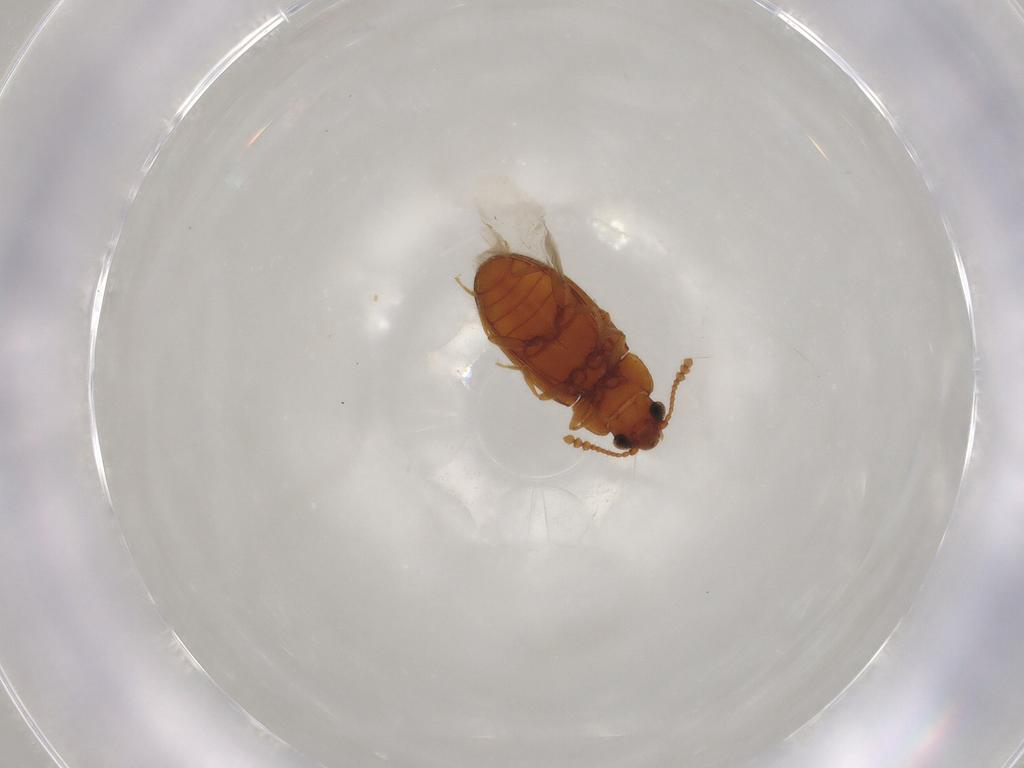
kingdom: Animalia
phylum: Arthropoda
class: Insecta
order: Coleoptera
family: Erotylidae
